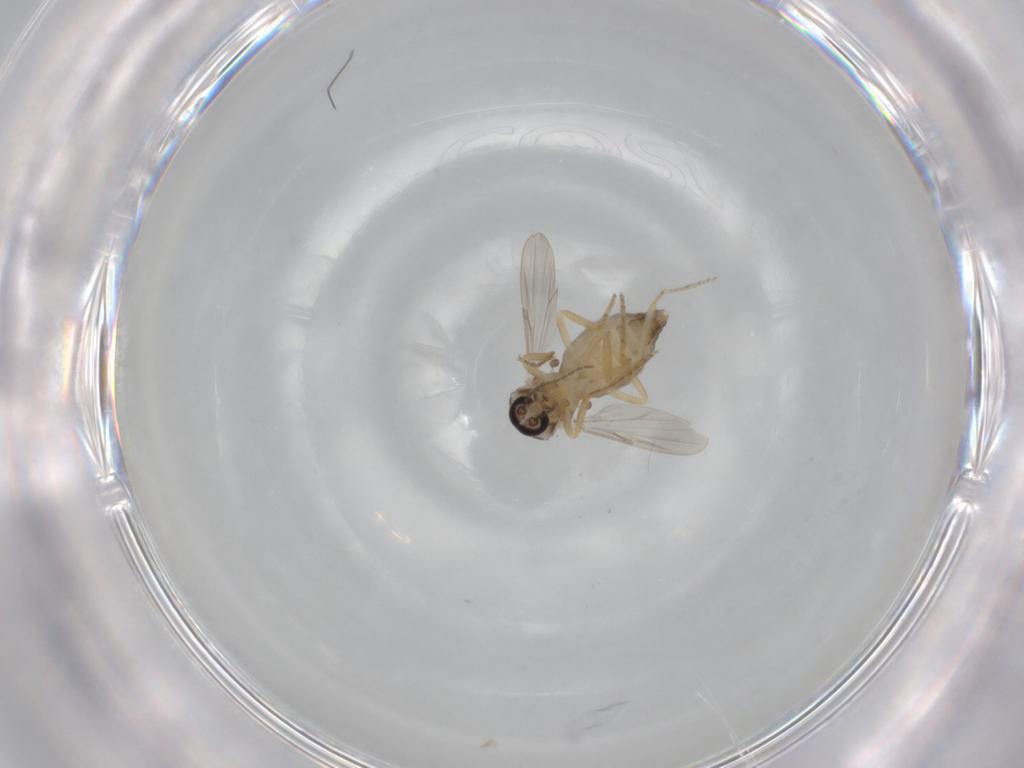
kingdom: Animalia
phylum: Arthropoda
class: Insecta
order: Diptera
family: Ceratopogonidae
